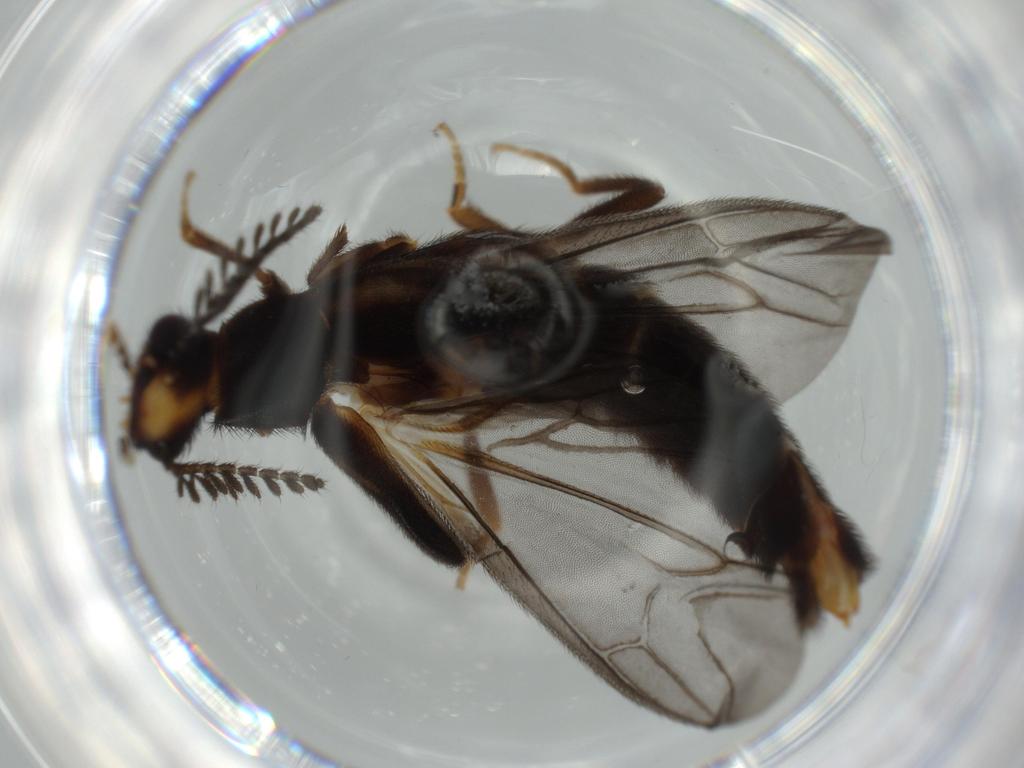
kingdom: Animalia
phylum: Arthropoda
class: Insecta
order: Coleoptera
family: Phengodidae
